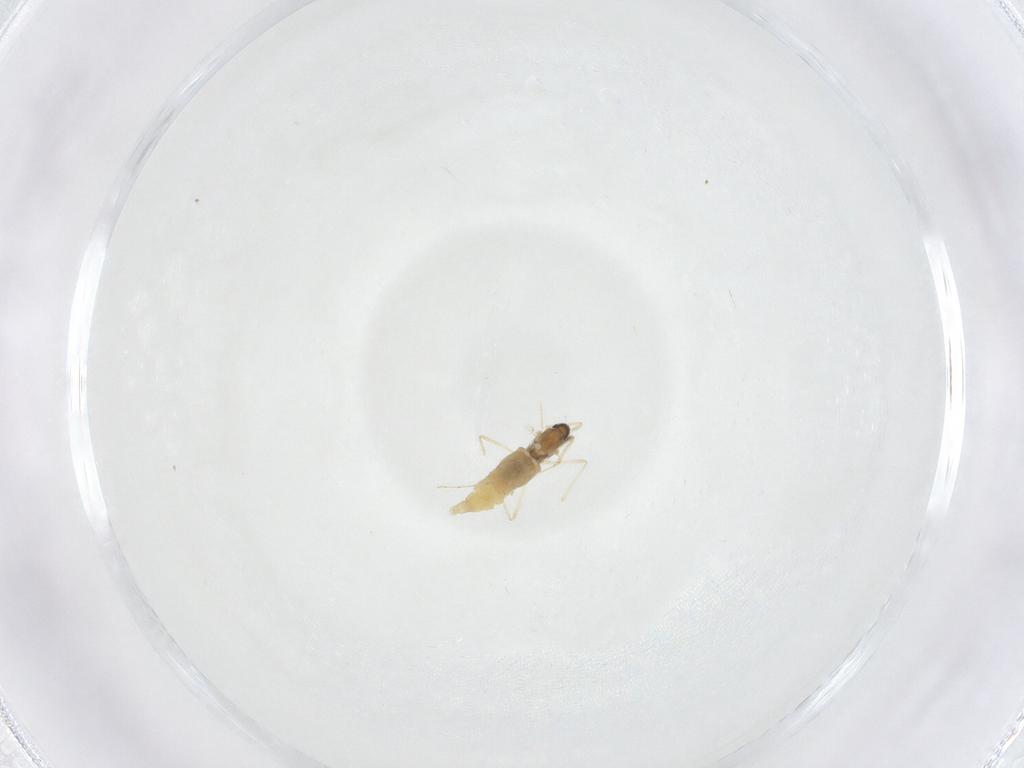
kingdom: Animalia
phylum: Arthropoda
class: Insecta
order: Diptera
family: Cecidomyiidae
